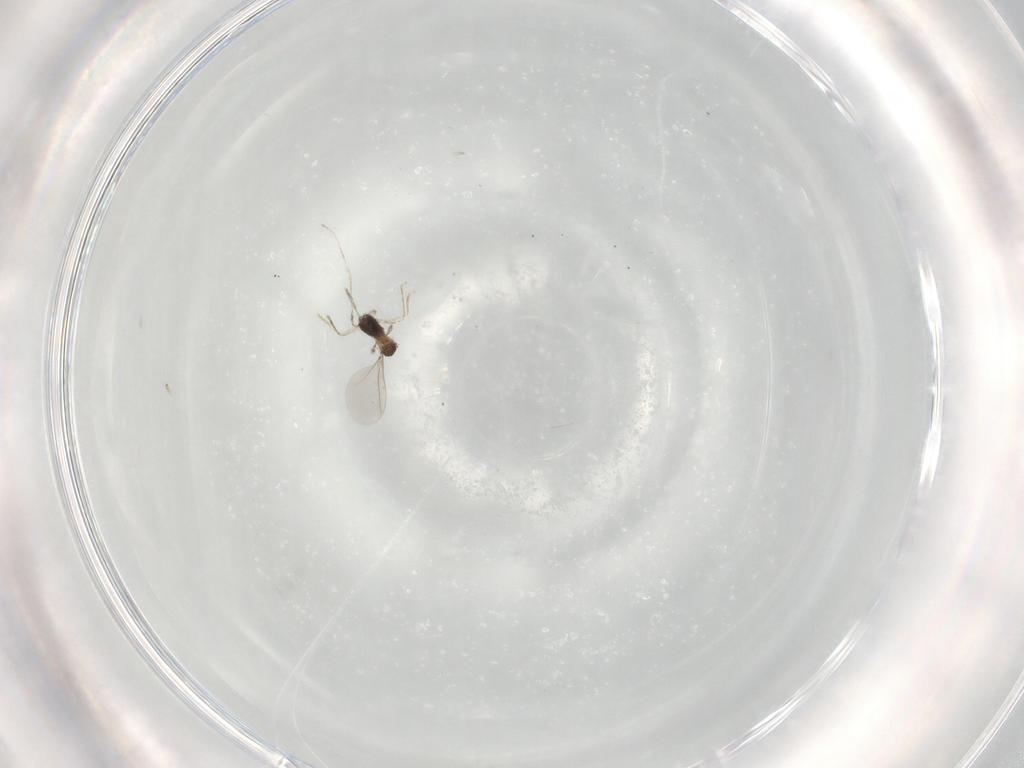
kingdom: Animalia
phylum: Arthropoda
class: Insecta
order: Diptera
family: Cecidomyiidae
